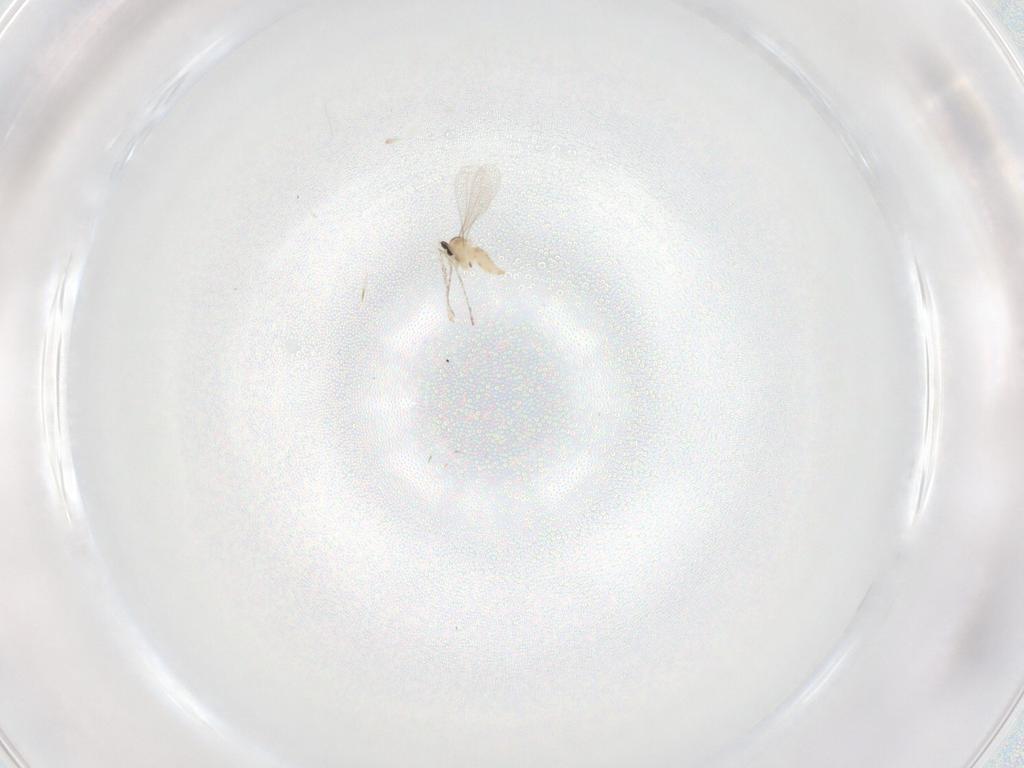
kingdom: Animalia
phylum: Arthropoda
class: Insecta
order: Diptera
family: Cecidomyiidae
